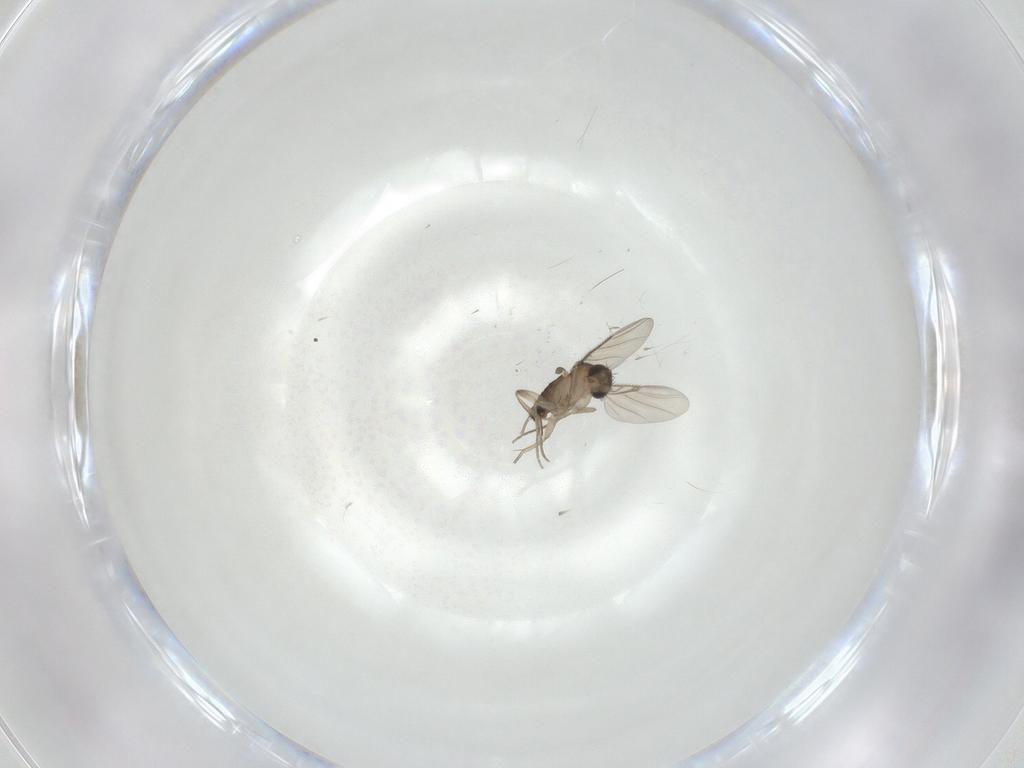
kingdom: Animalia
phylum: Arthropoda
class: Insecta
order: Diptera
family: Phoridae
